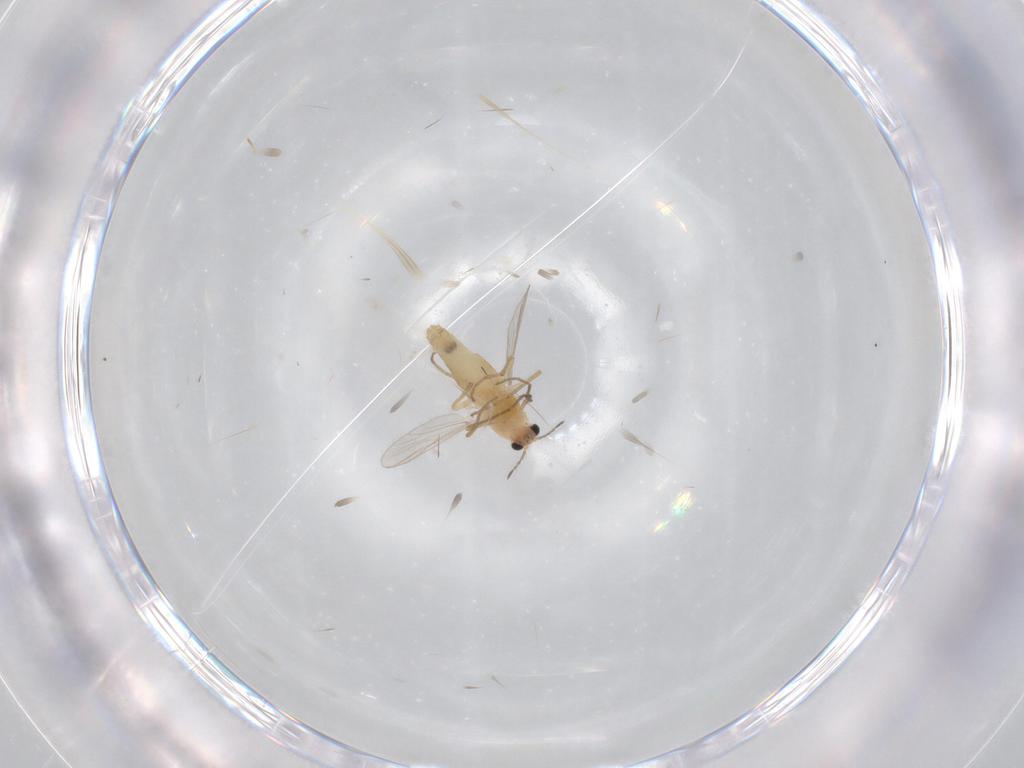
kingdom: Animalia
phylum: Arthropoda
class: Insecta
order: Diptera
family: Chironomidae
